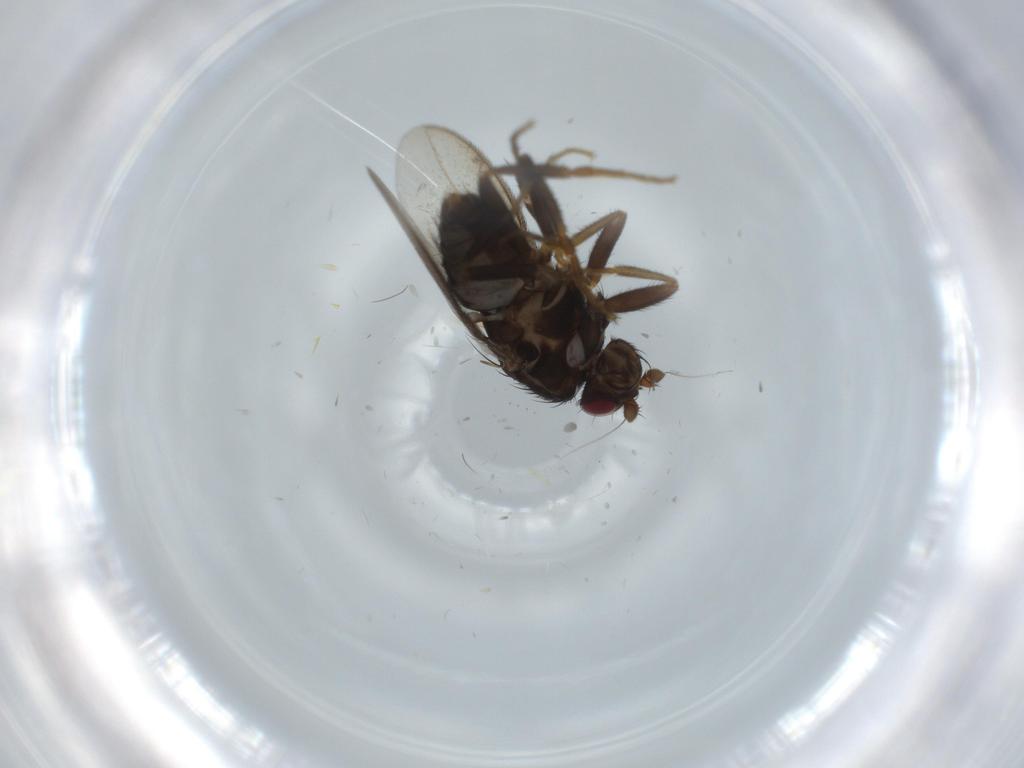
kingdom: Animalia
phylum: Arthropoda
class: Insecta
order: Diptera
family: Sphaeroceridae
